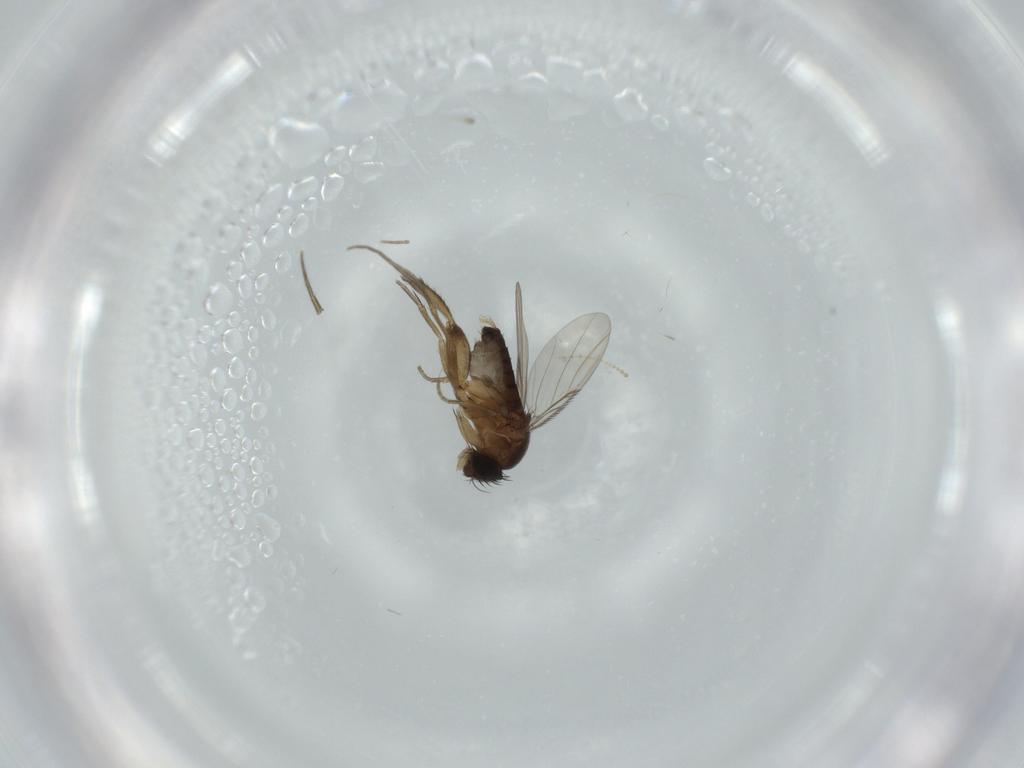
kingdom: Animalia
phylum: Arthropoda
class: Insecta
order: Diptera
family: Phoridae
